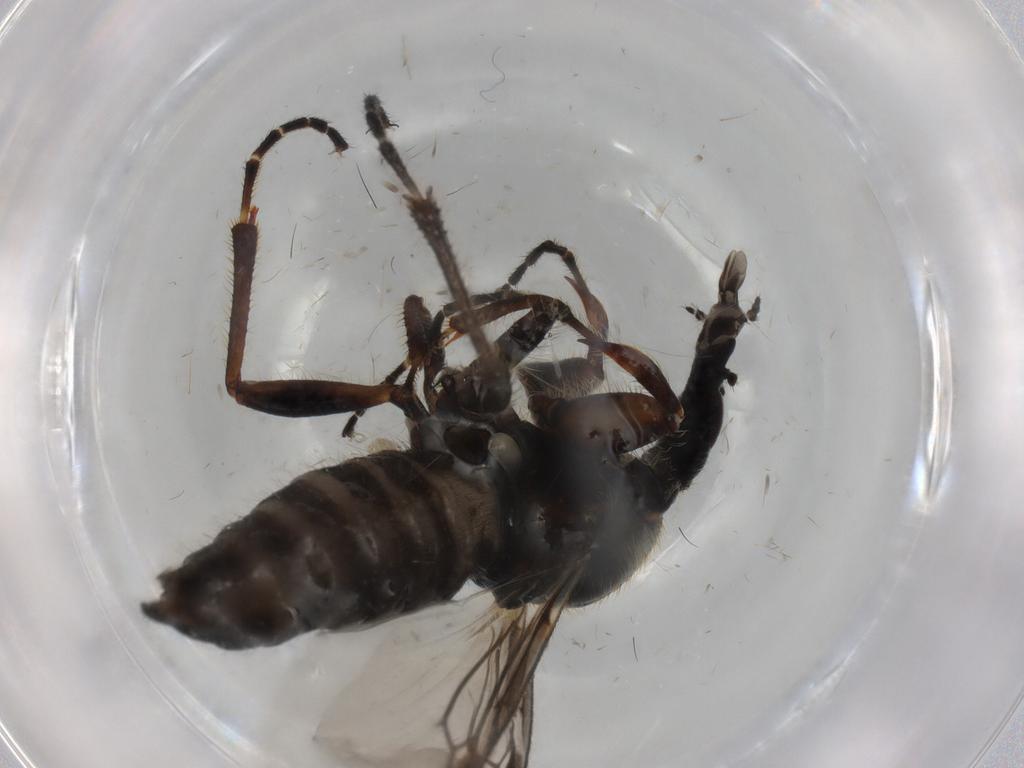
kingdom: Animalia
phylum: Arthropoda
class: Insecta
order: Diptera
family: Bibionidae
